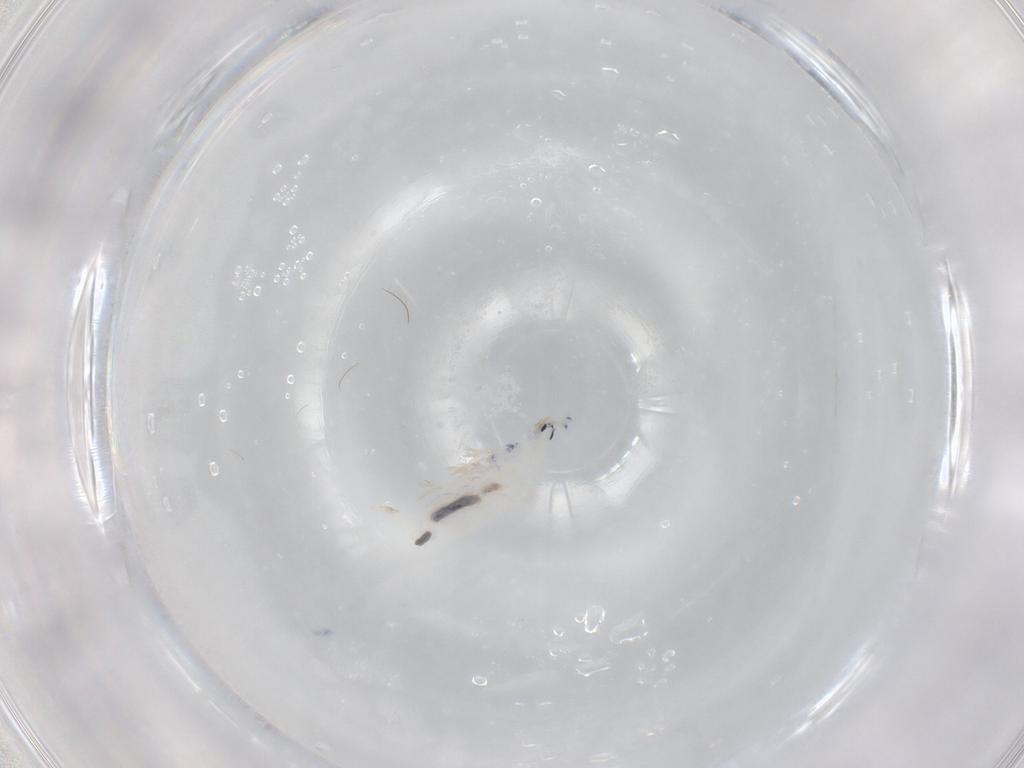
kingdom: Animalia
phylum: Arthropoda
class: Collembola
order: Entomobryomorpha
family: Entomobryidae
